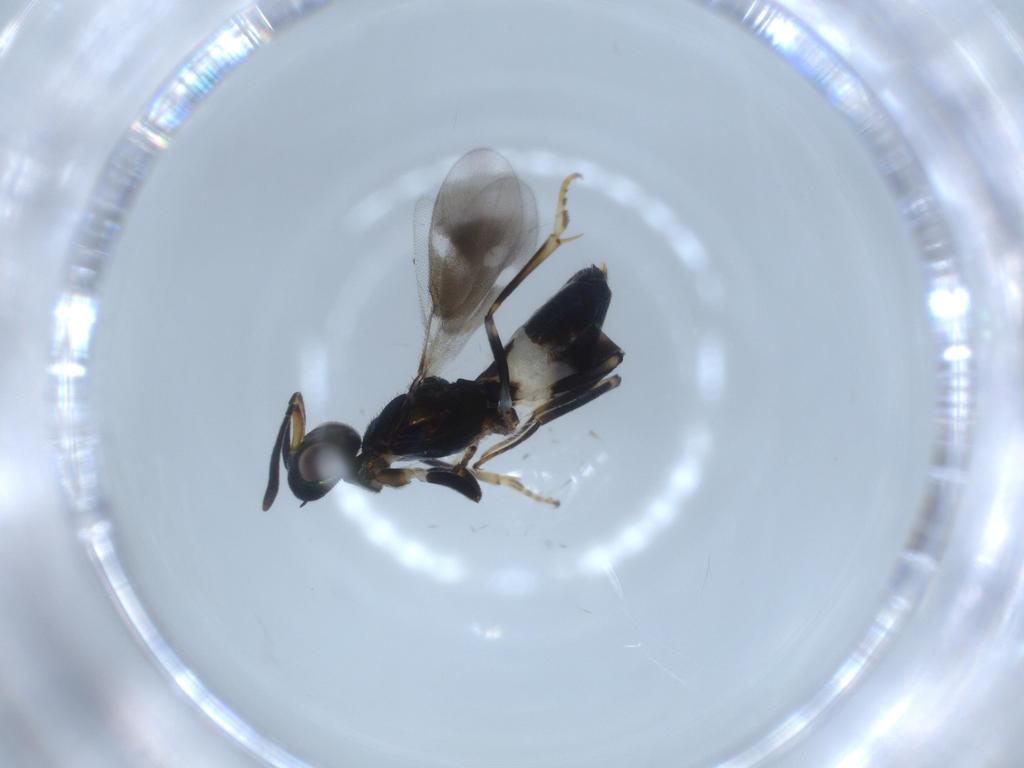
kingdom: Animalia
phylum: Arthropoda
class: Insecta
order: Hymenoptera
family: Eupelmidae
